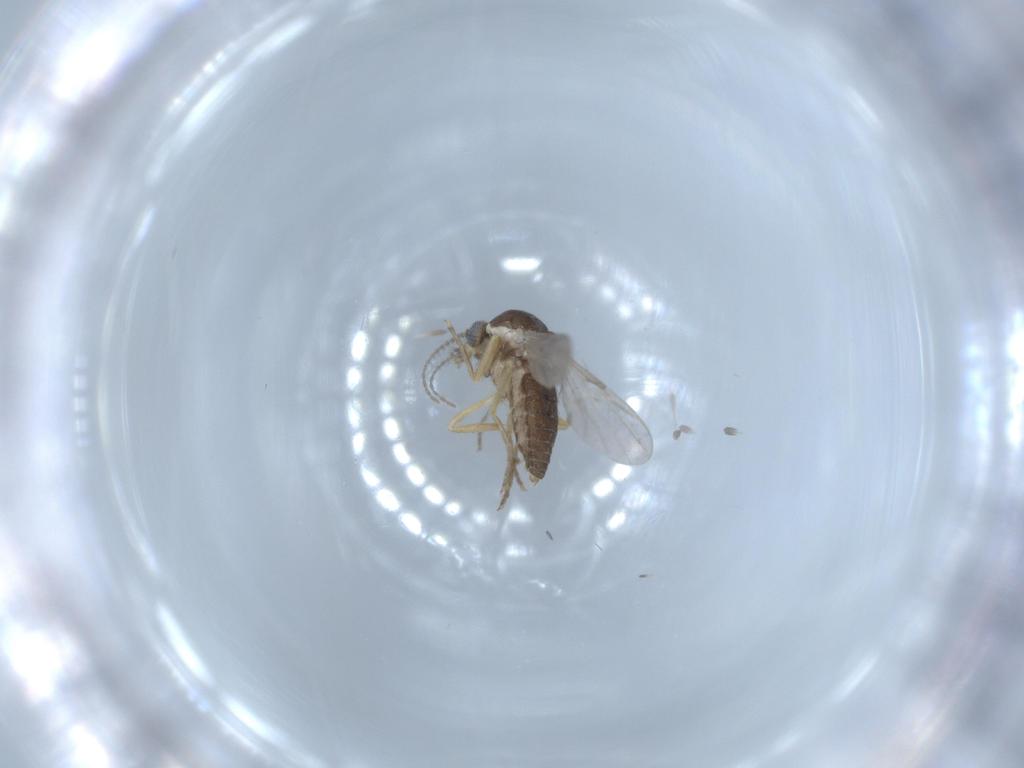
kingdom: Animalia
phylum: Arthropoda
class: Insecta
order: Diptera
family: Ceratopogonidae
